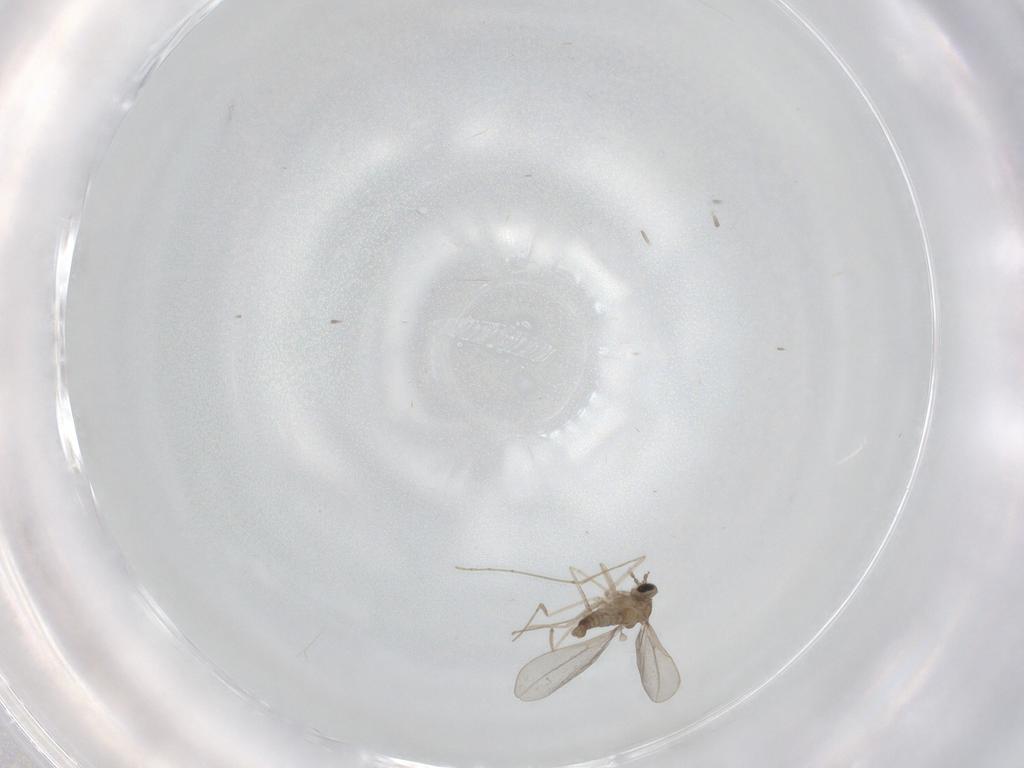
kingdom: Animalia
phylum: Arthropoda
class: Insecta
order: Diptera
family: Cecidomyiidae
